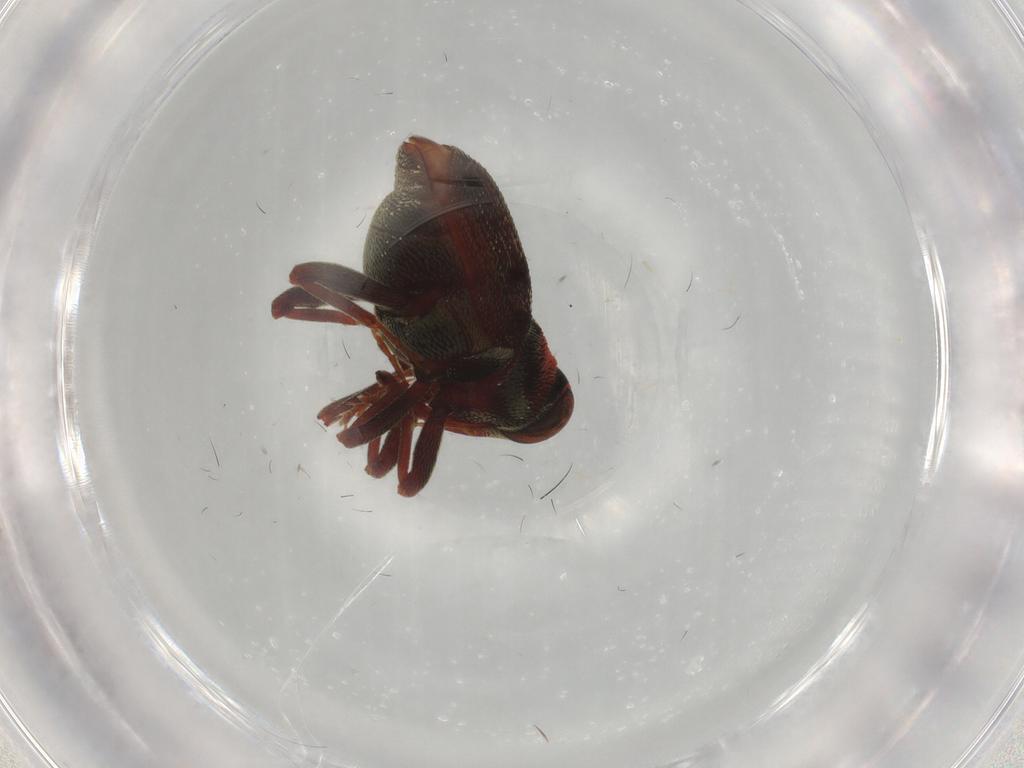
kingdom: Animalia
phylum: Arthropoda
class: Insecta
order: Coleoptera
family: Curculionidae
